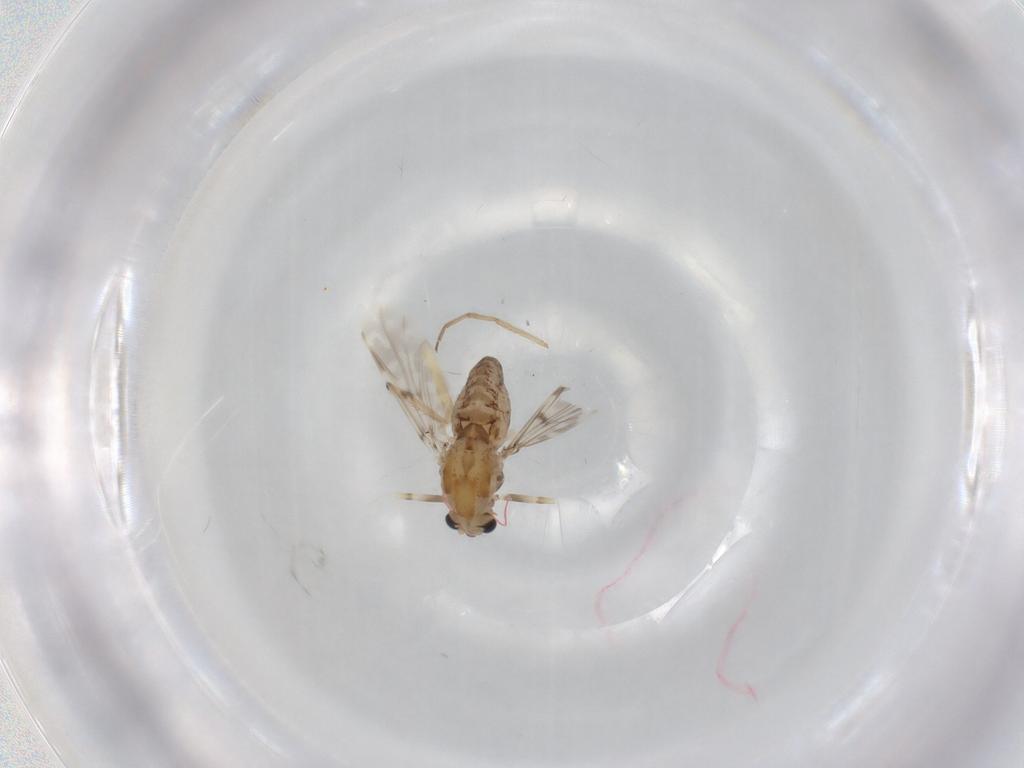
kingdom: Animalia
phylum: Arthropoda
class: Insecta
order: Diptera
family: Chironomidae
